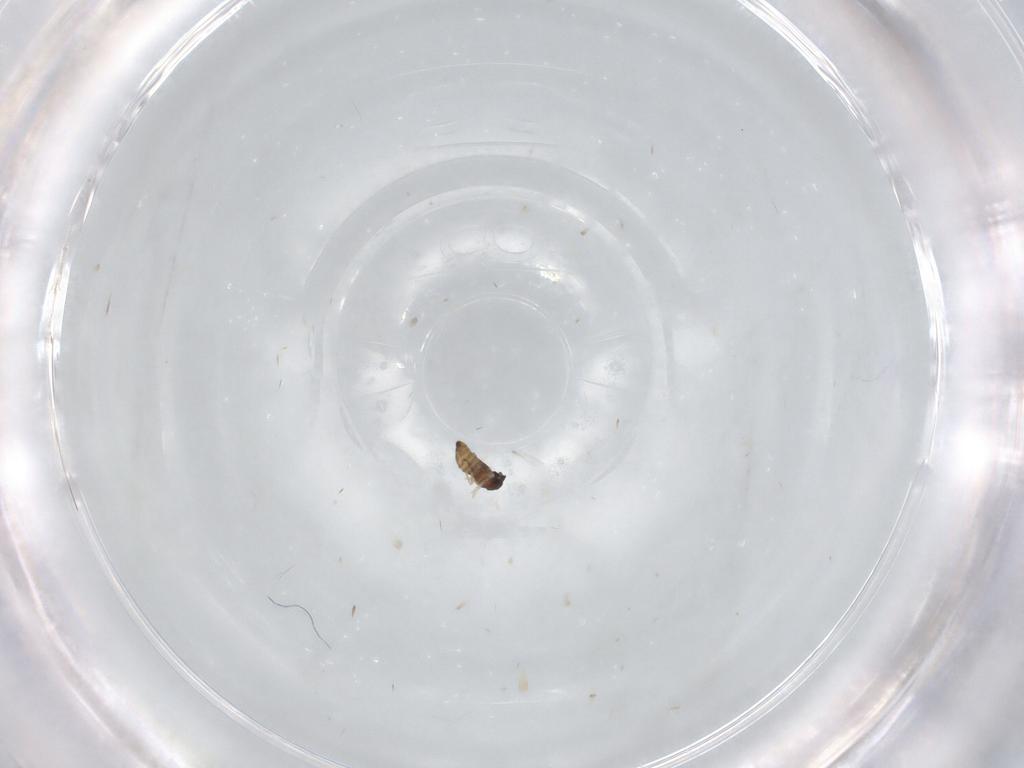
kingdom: Animalia
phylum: Arthropoda
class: Insecta
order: Diptera
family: Cecidomyiidae
